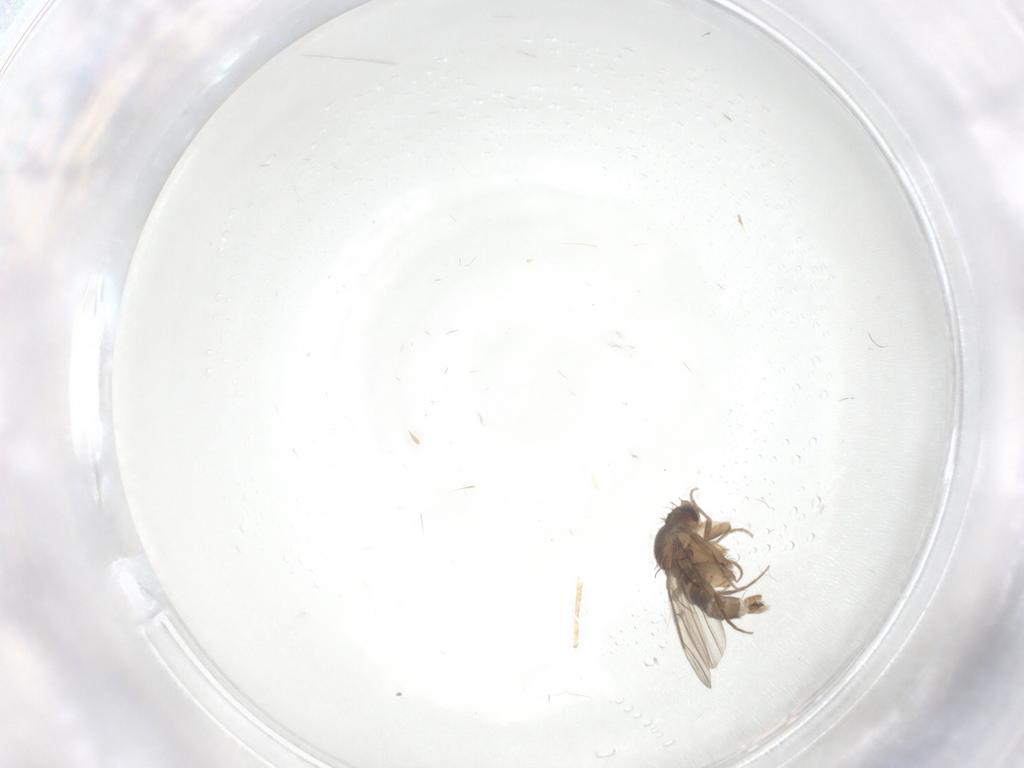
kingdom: Animalia
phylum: Arthropoda
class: Insecta
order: Diptera
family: Phoridae
